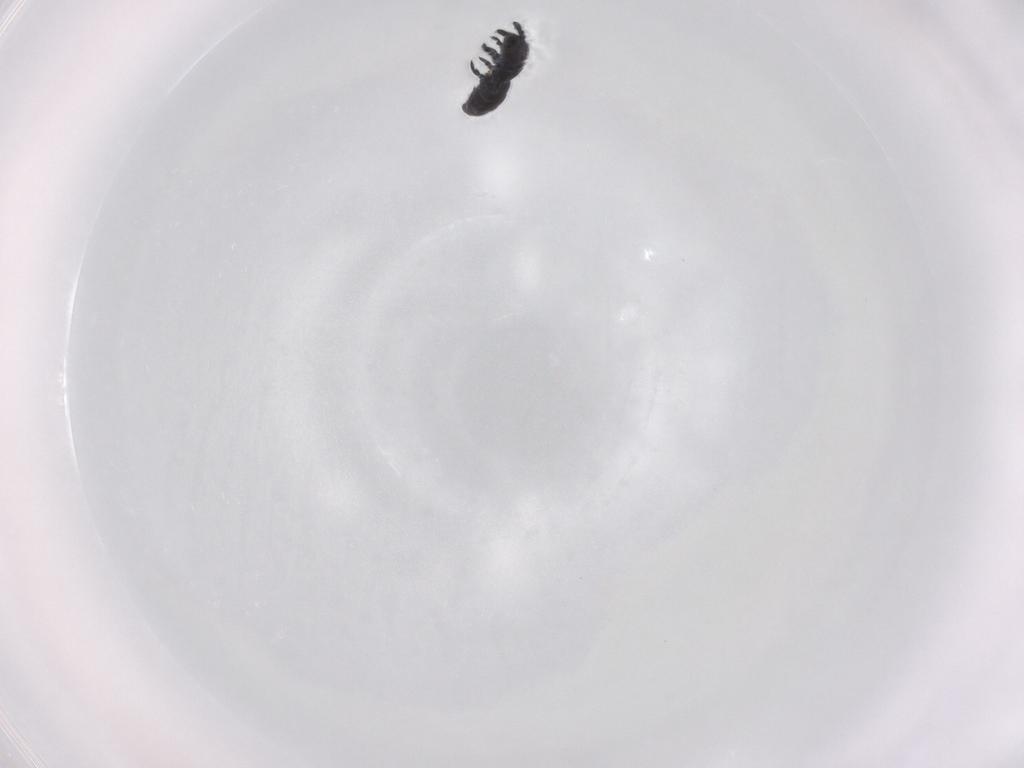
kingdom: Animalia
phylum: Arthropoda
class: Collembola
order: Poduromorpha
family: Hypogastruridae
